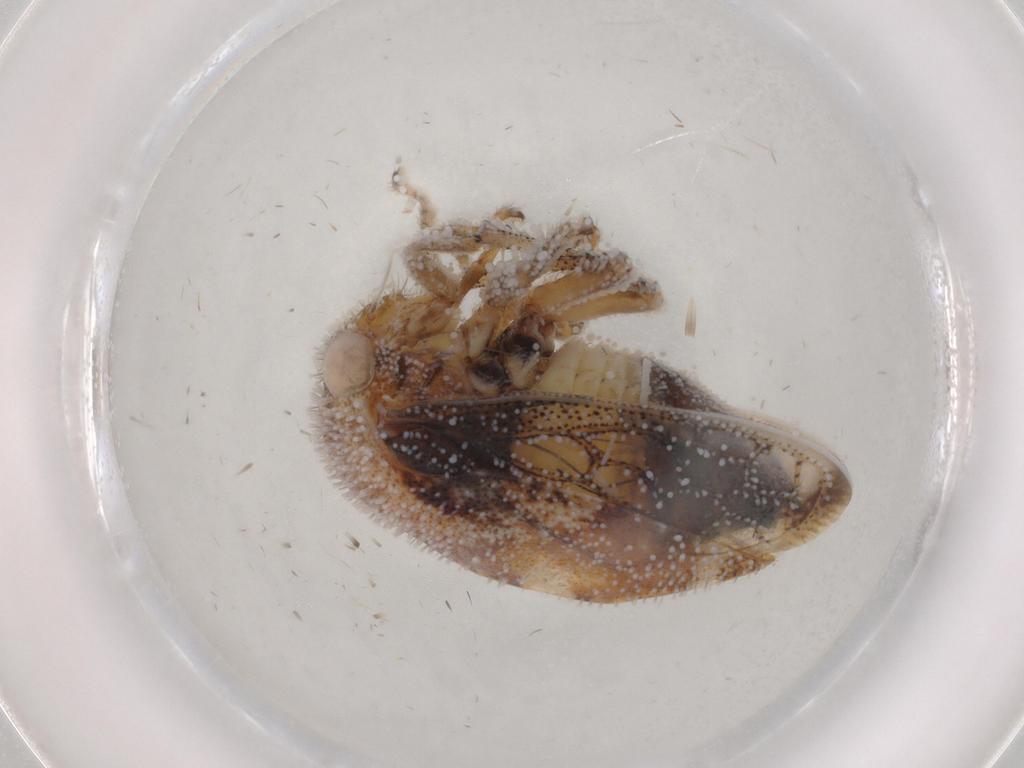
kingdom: Animalia
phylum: Arthropoda
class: Insecta
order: Hemiptera
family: Membracidae
